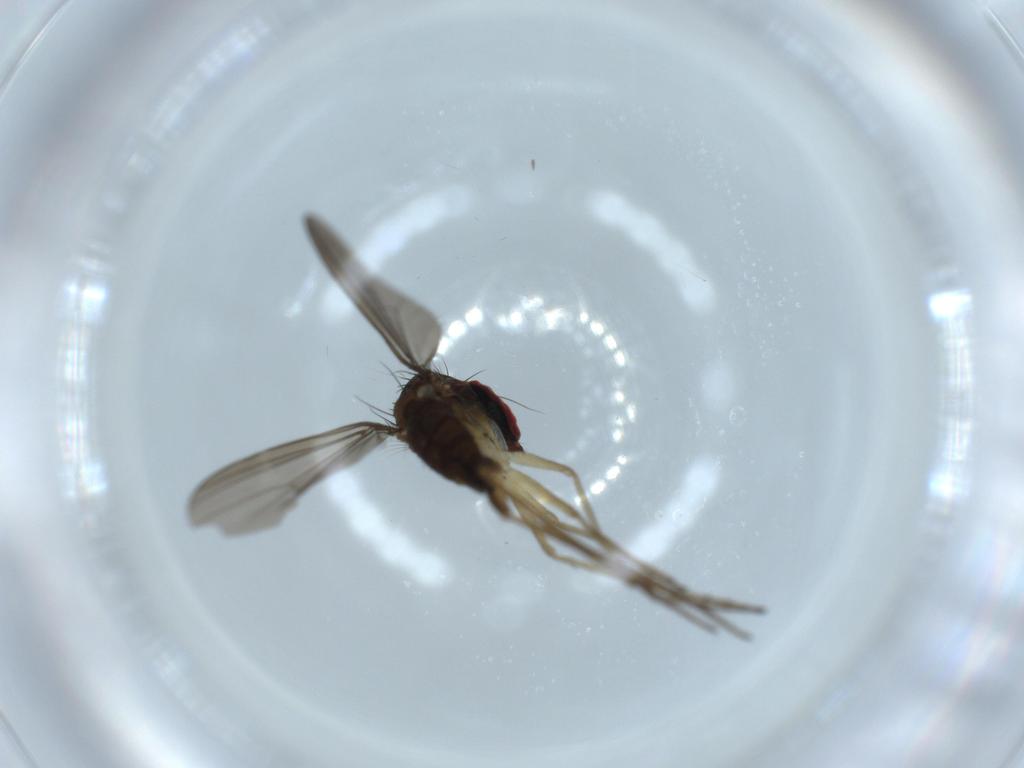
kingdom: Animalia
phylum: Arthropoda
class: Insecta
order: Diptera
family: Dolichopodidae
